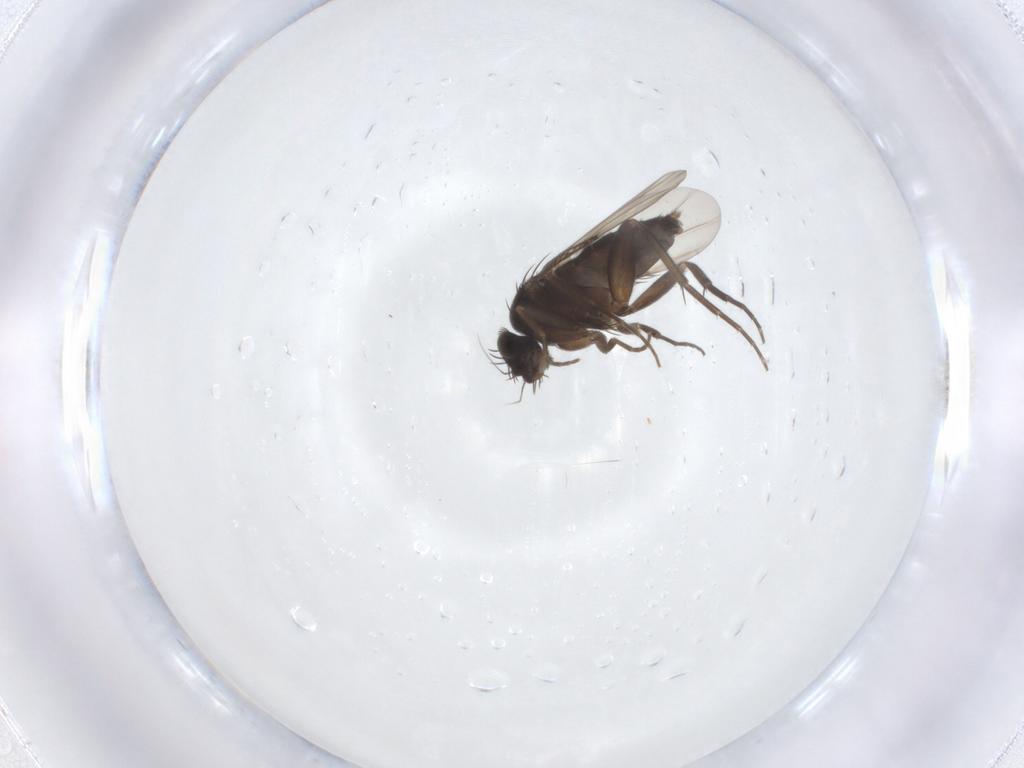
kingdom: Animalia
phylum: Arthropoda
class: Insecta
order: Diptera
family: Phoridae
